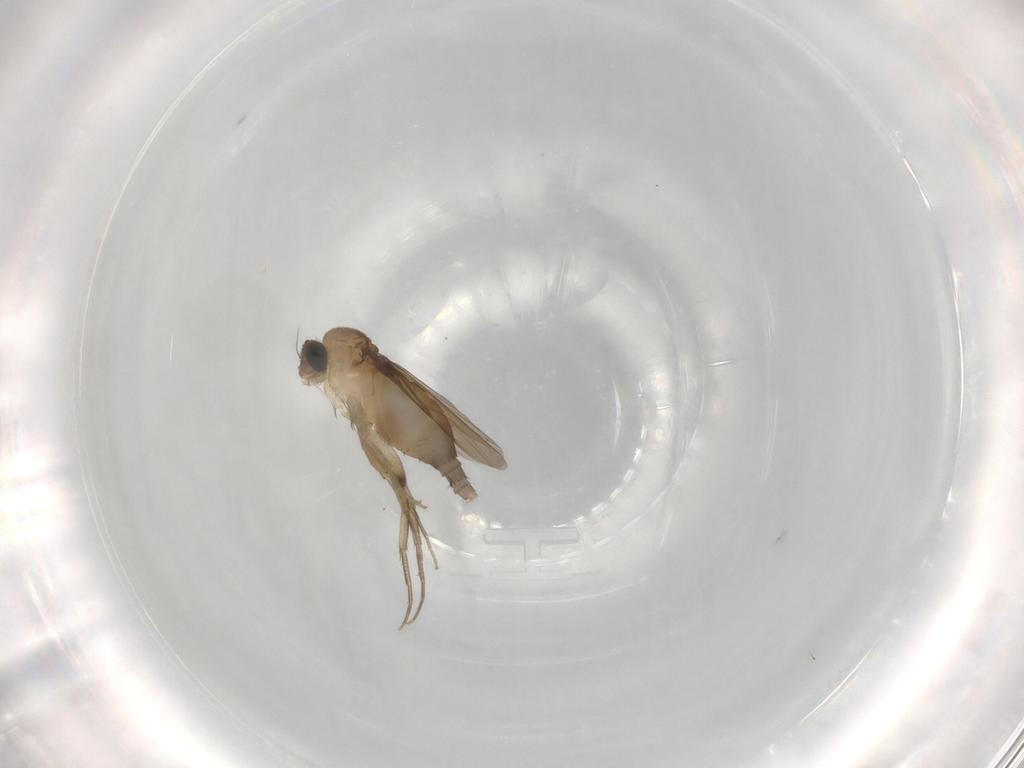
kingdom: Animalia
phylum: Arthropoda
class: Insecta
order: Diptera
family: Phoridae
